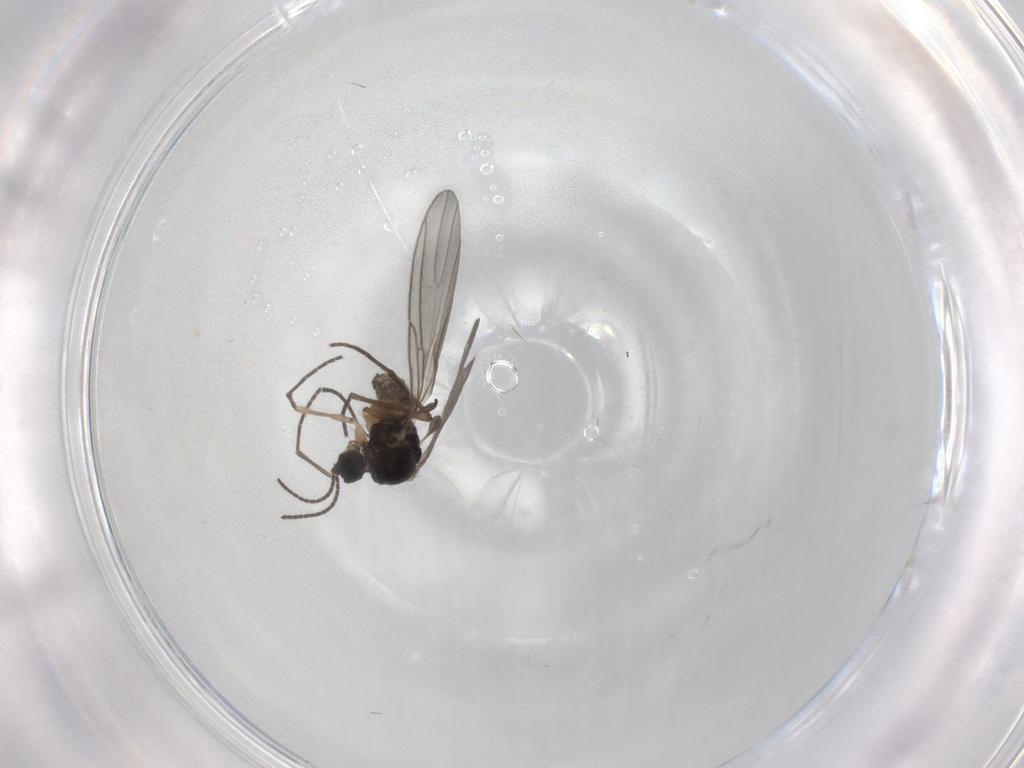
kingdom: Animalia
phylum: Arthropoda
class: Insecta
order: Diptera
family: Sciaridae
